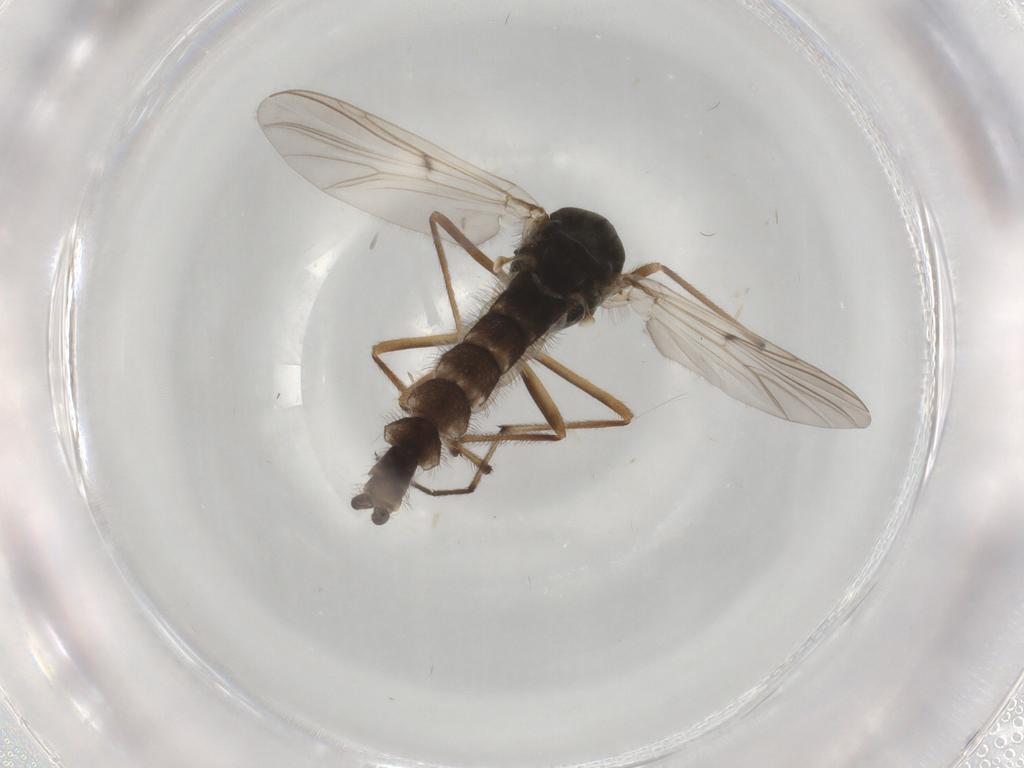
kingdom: Animalia
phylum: Arthropoda
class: Insecta
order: Diptera
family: Chironomidae
